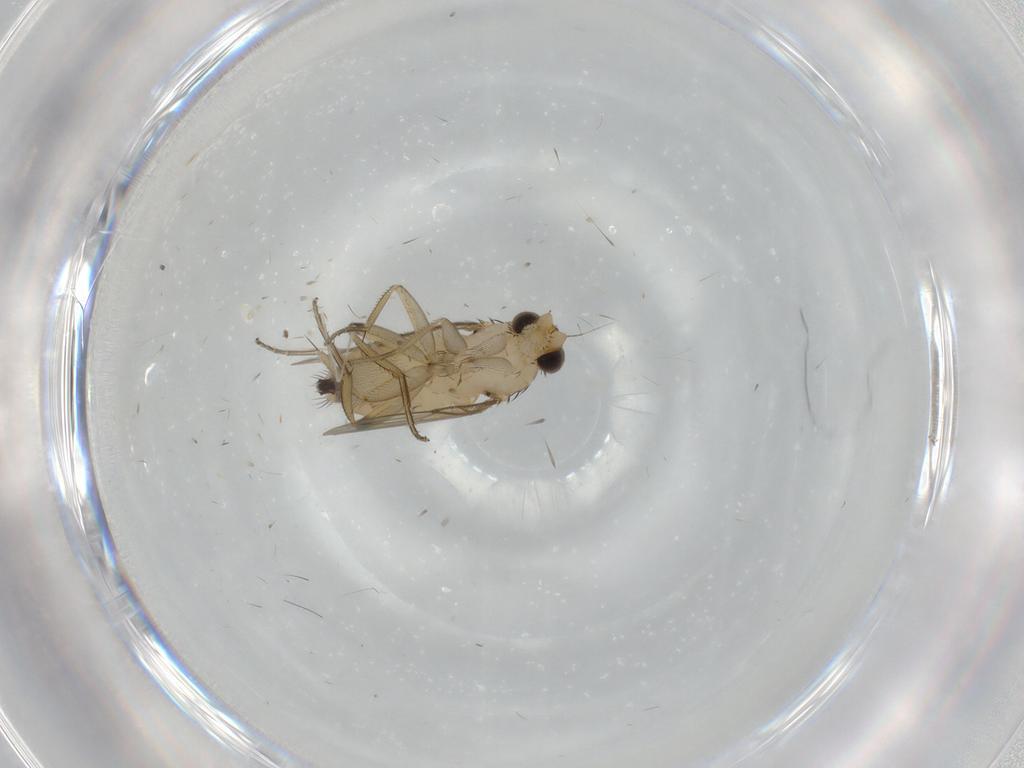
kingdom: Animalia
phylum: Arthropoda
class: Insecta
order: Diptera
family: Phoridae
